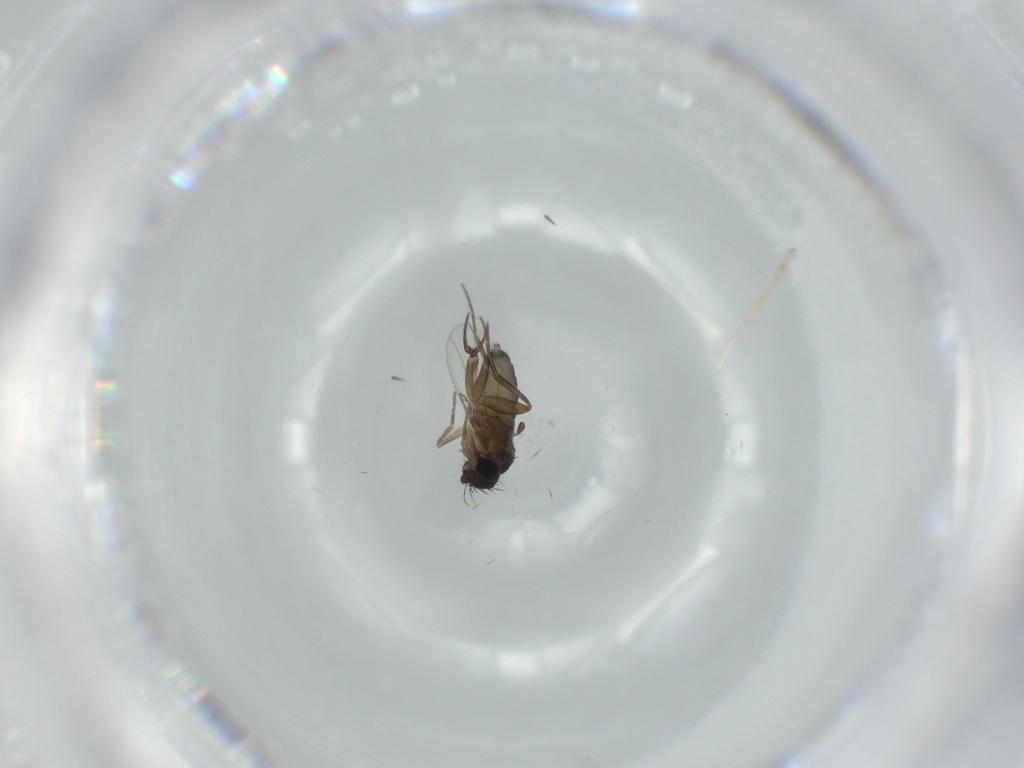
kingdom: Animalia
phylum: Arthropoda
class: Insecta
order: Diptera
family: Phoridae
